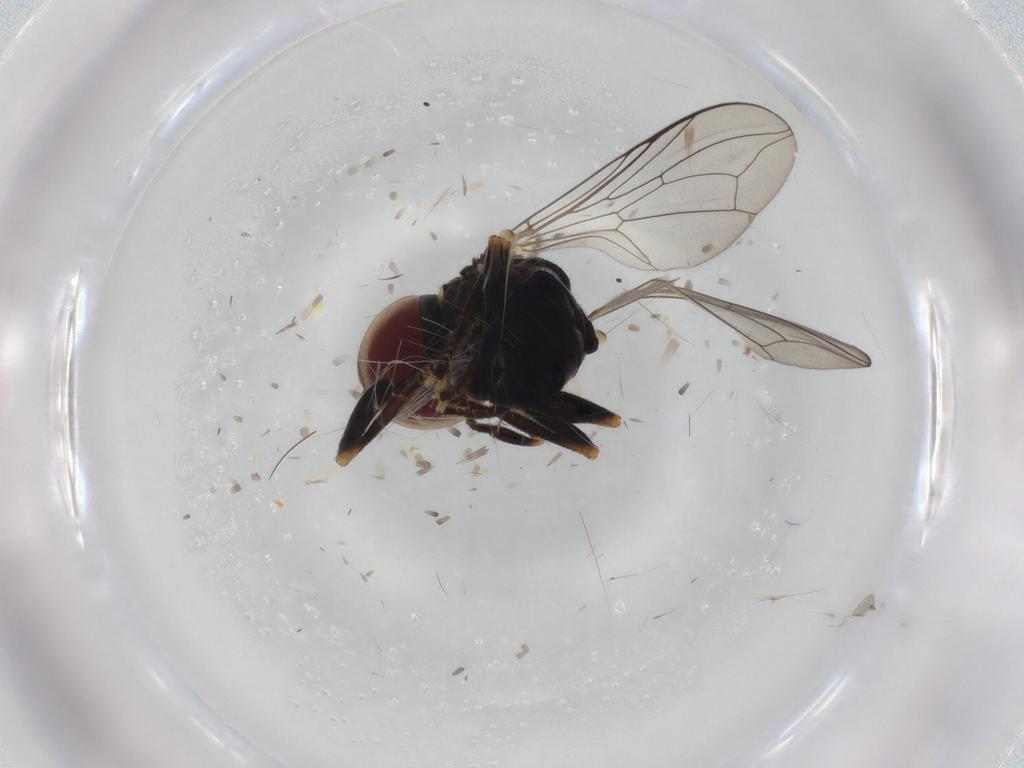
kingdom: Animalia
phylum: Arthropoda
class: Insecta
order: Diptera
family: Pipunculidae
